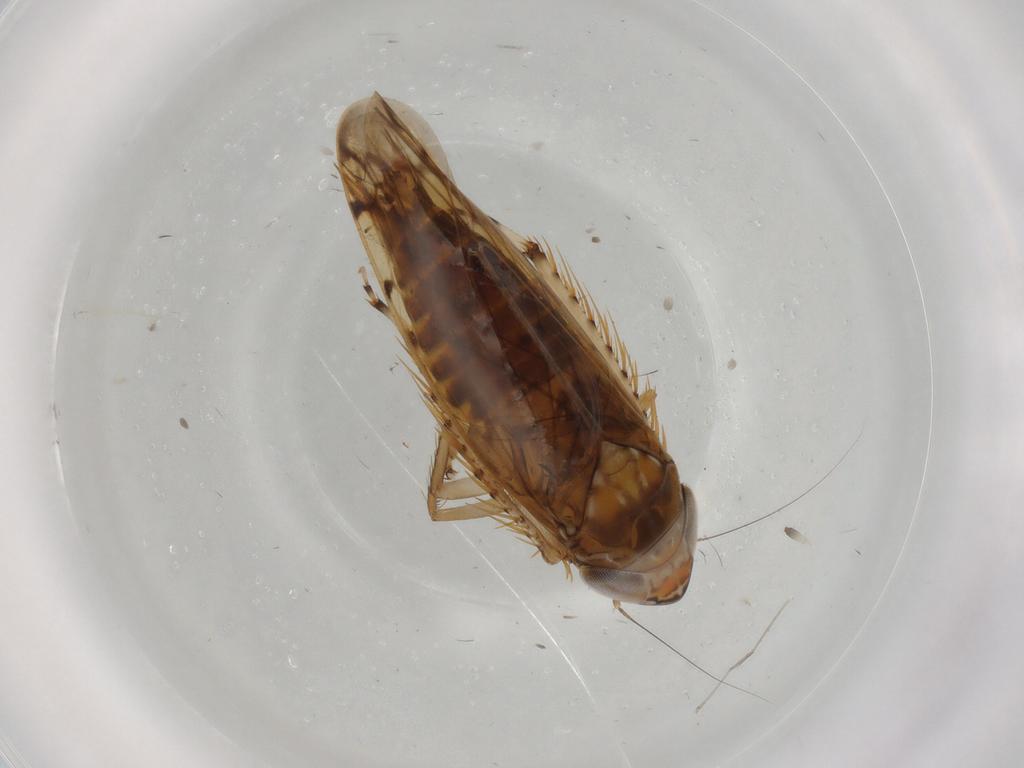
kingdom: Animalia
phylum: Arthropoda
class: Insecta
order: Hemiptera
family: Cicadellidae
